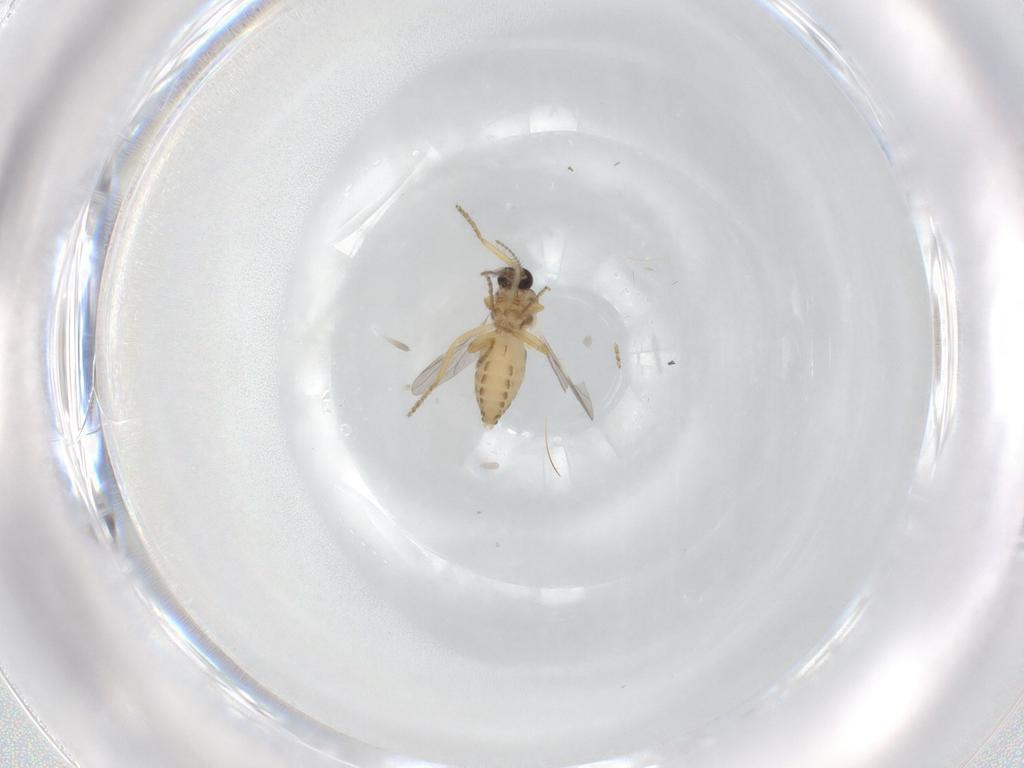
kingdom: Animalia
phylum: Arthropoda
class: Insecta
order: Diptera
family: Ceratopogonidae
